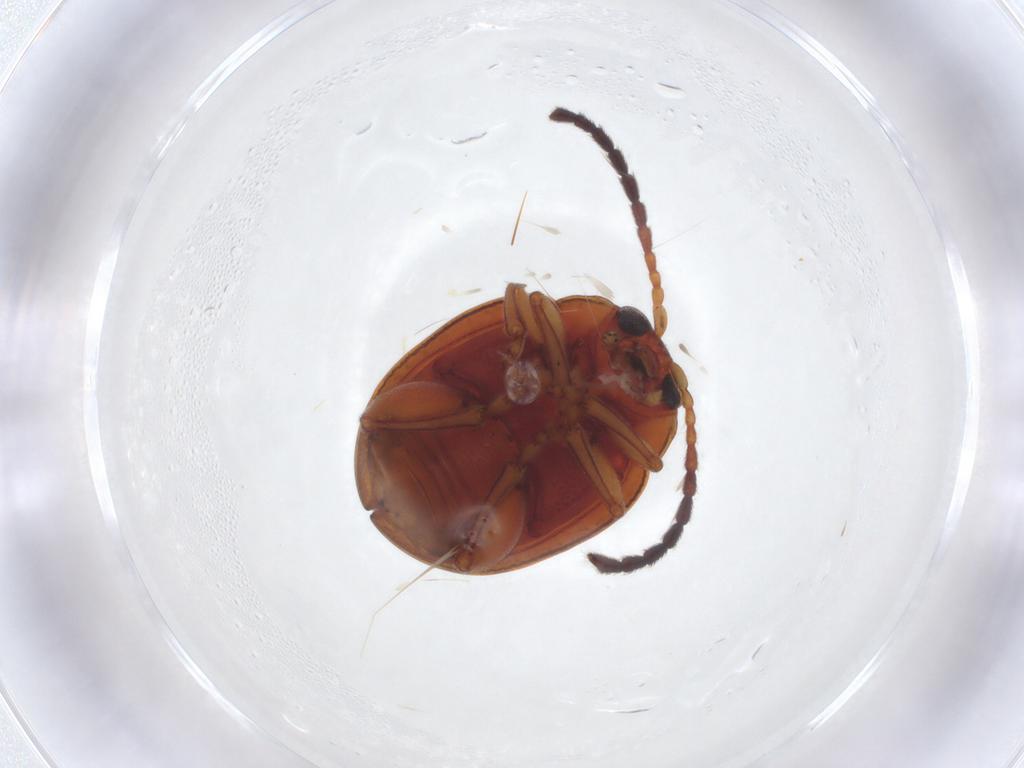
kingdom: Animalia
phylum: Arthropoda
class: Insecta
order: Coleoptera
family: Chrysomelidae
